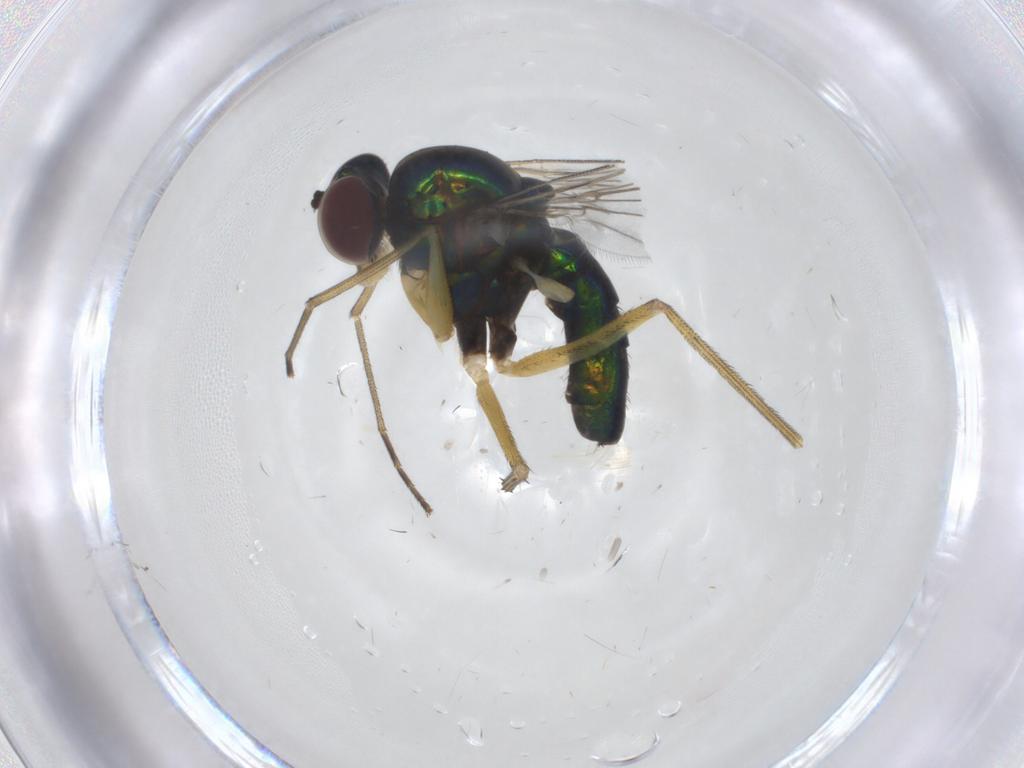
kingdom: Animalia
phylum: Arthropoda
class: Insecta
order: Diptera
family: Dolichopodidae
